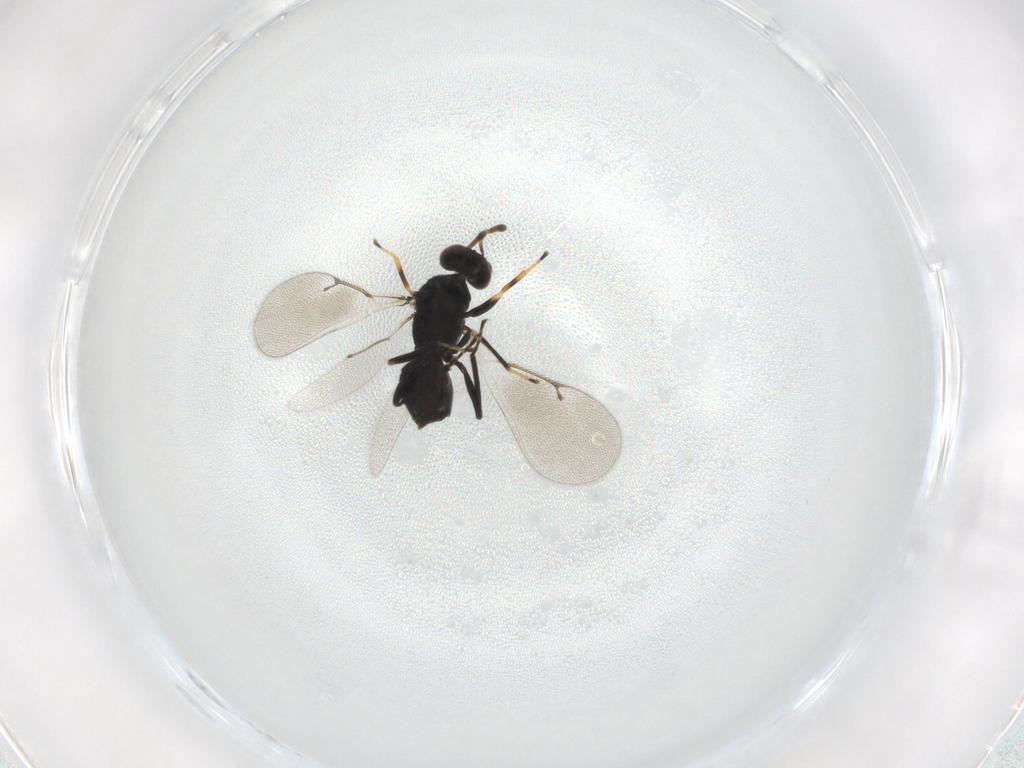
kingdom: Animalia
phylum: Arthropoda
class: Insecta
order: Hymenoptera
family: Eulophidae
